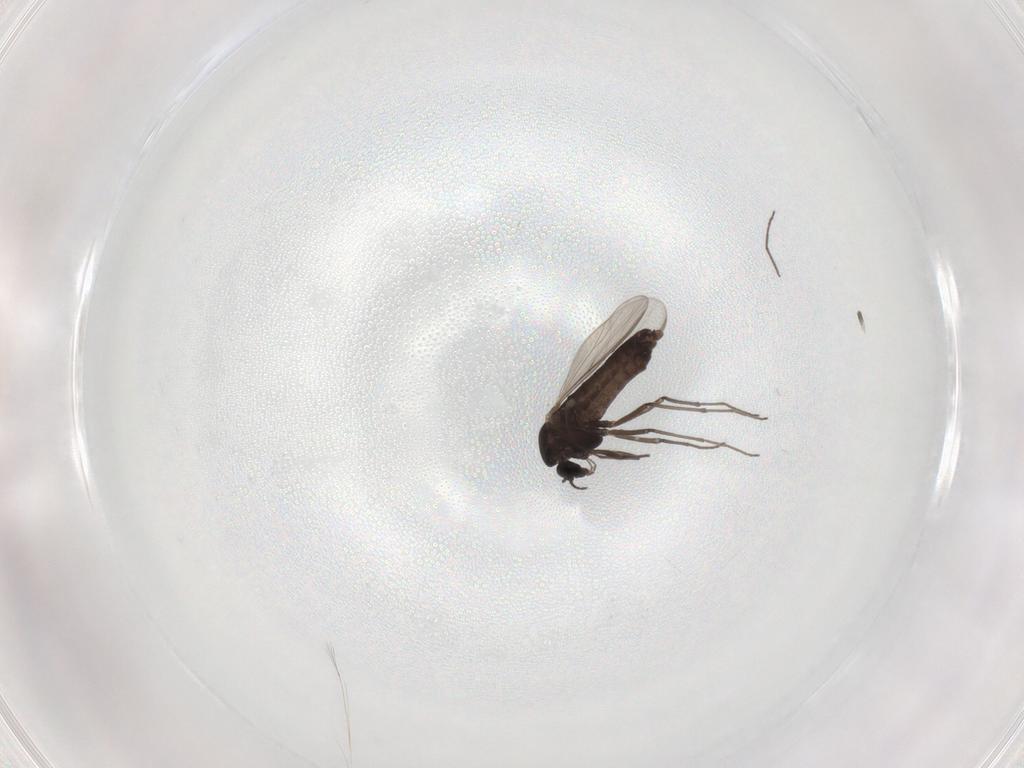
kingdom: Animalia
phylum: Arthropoda
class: Insecta
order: Diptera
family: Chironomidae
